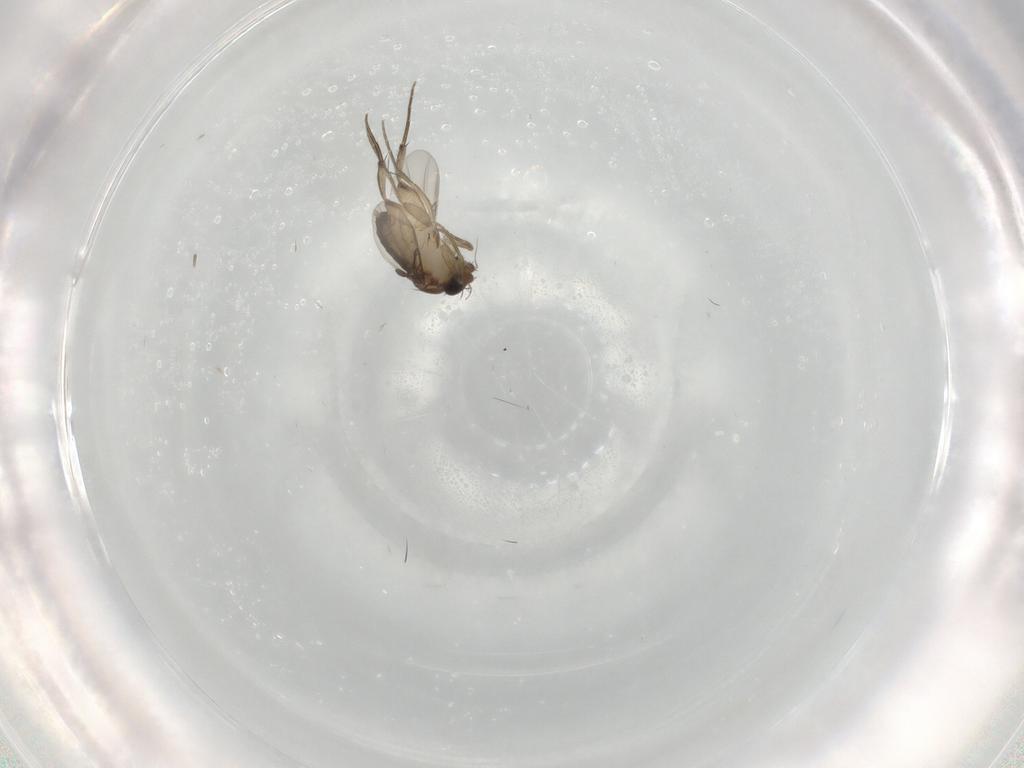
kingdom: Animalia
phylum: Arthropoda
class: Insecta
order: Diptera
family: Phoridae
